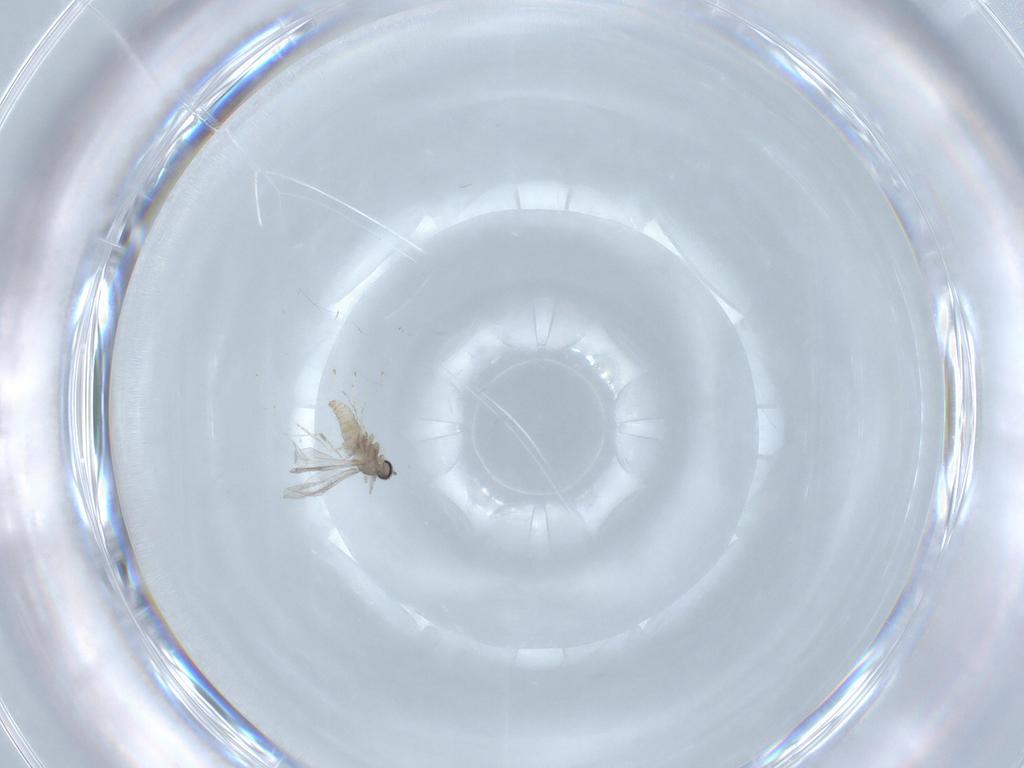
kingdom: Animalia
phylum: Arthropoda
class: Insecta
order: Diptera
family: Cecidomyiidae
